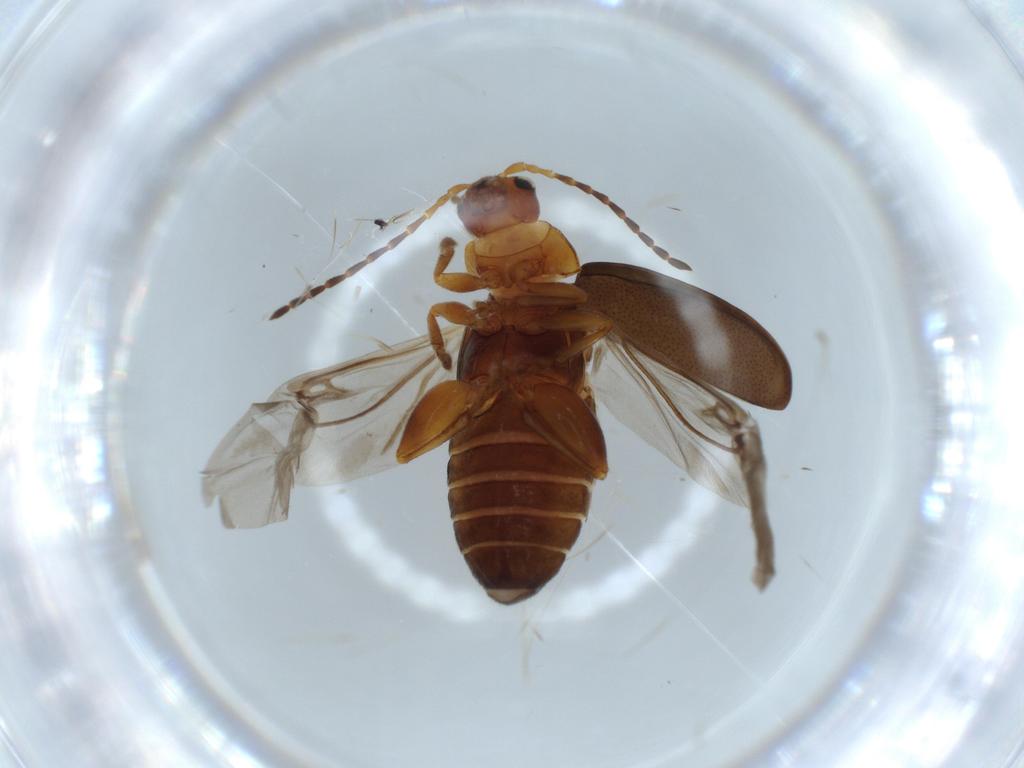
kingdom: Animalia
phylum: Arthropoda
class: Insecta
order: Coleoptera
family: Chrysomelidae
